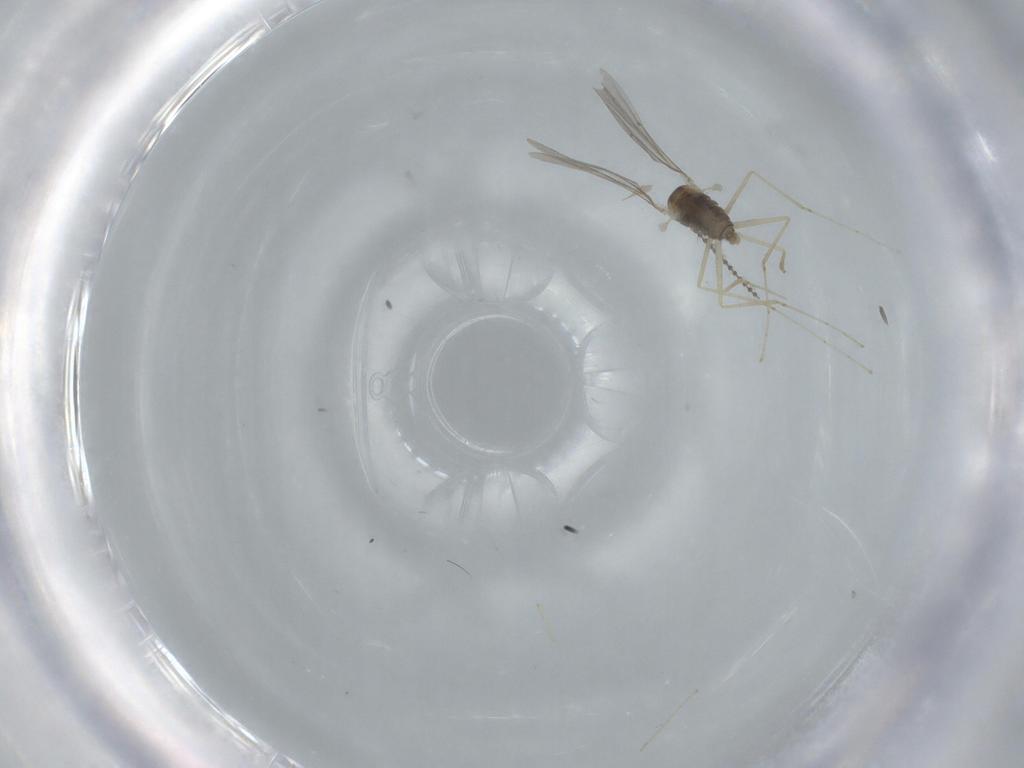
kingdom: Animalia
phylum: Arthropoda
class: Insecta
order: Diptera
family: Cecidomyiidae
